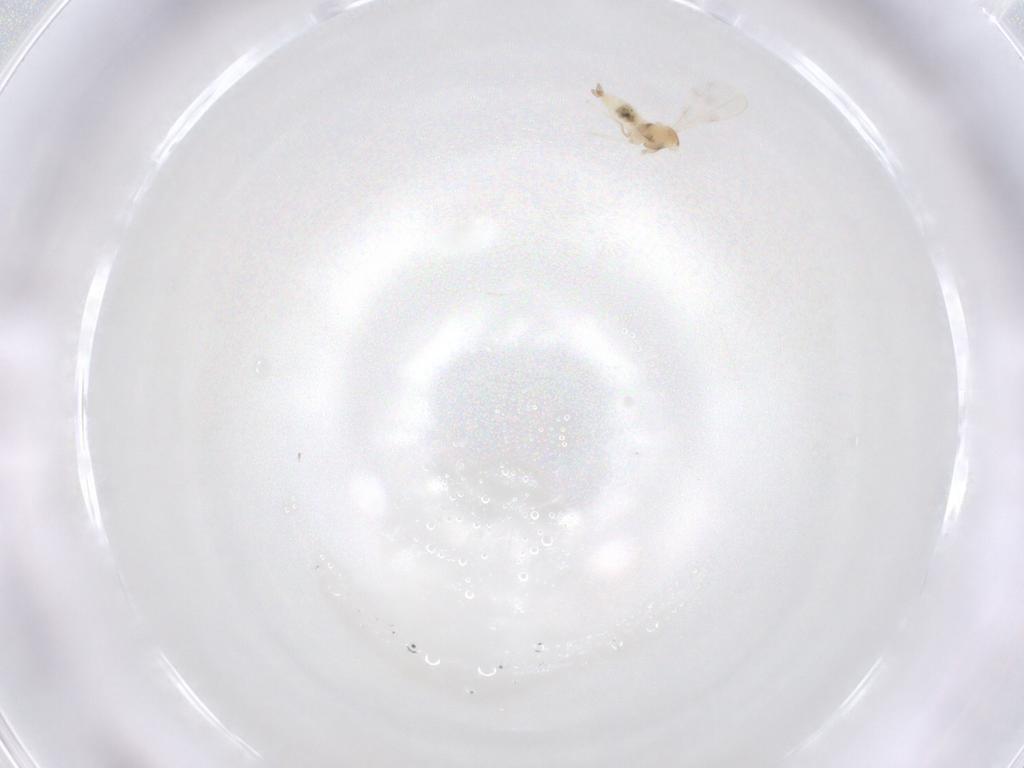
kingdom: Animalia
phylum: Arthropoda
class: Insecta
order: Diptera
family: Cecidomyiidae
